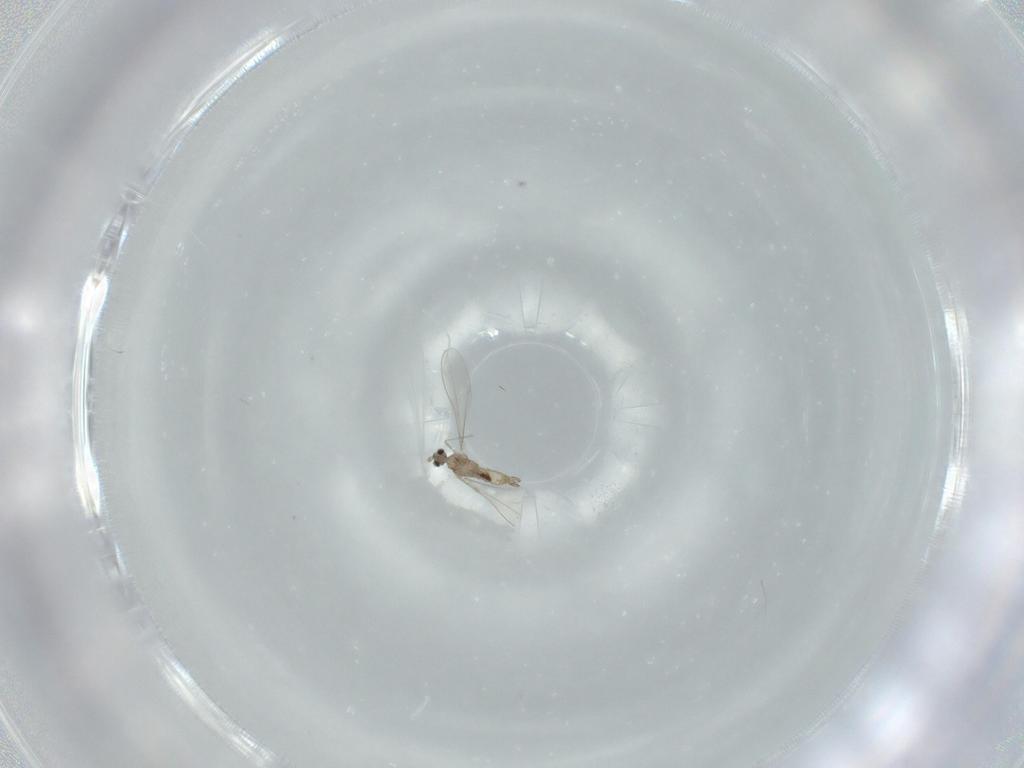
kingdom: Animalia
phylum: Arthropoda
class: Insecta
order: Diptera
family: Cecidomyiidae
